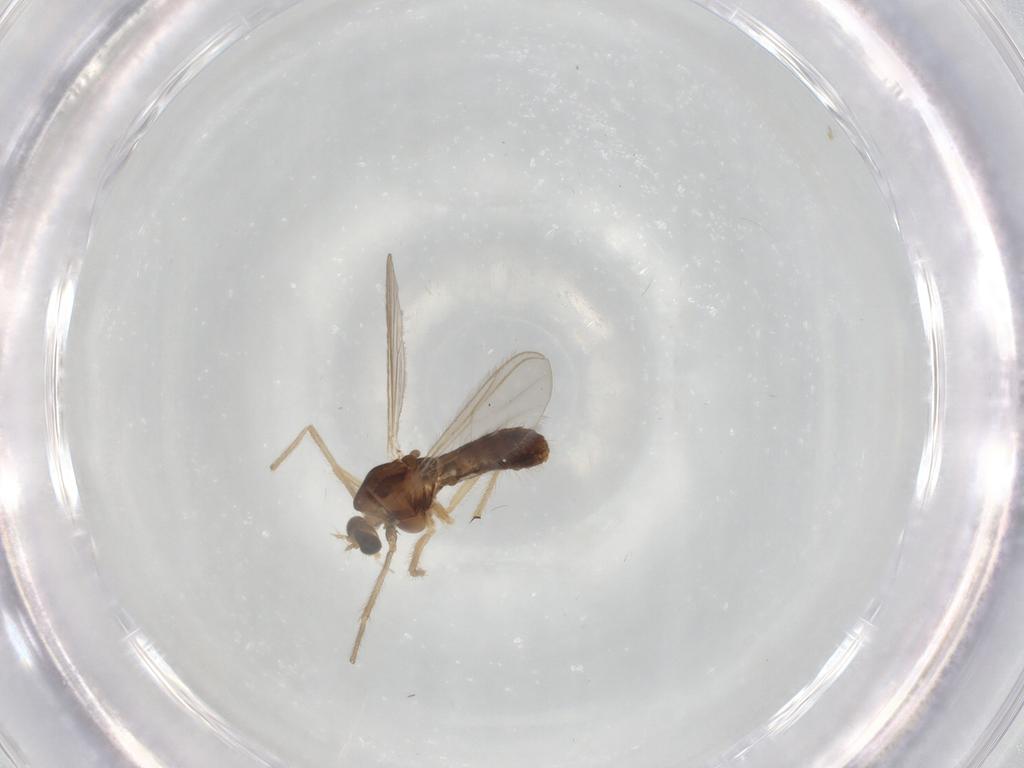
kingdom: Animalia
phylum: Arthropoda
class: Insecta
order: Diptera
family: Chironomidae
